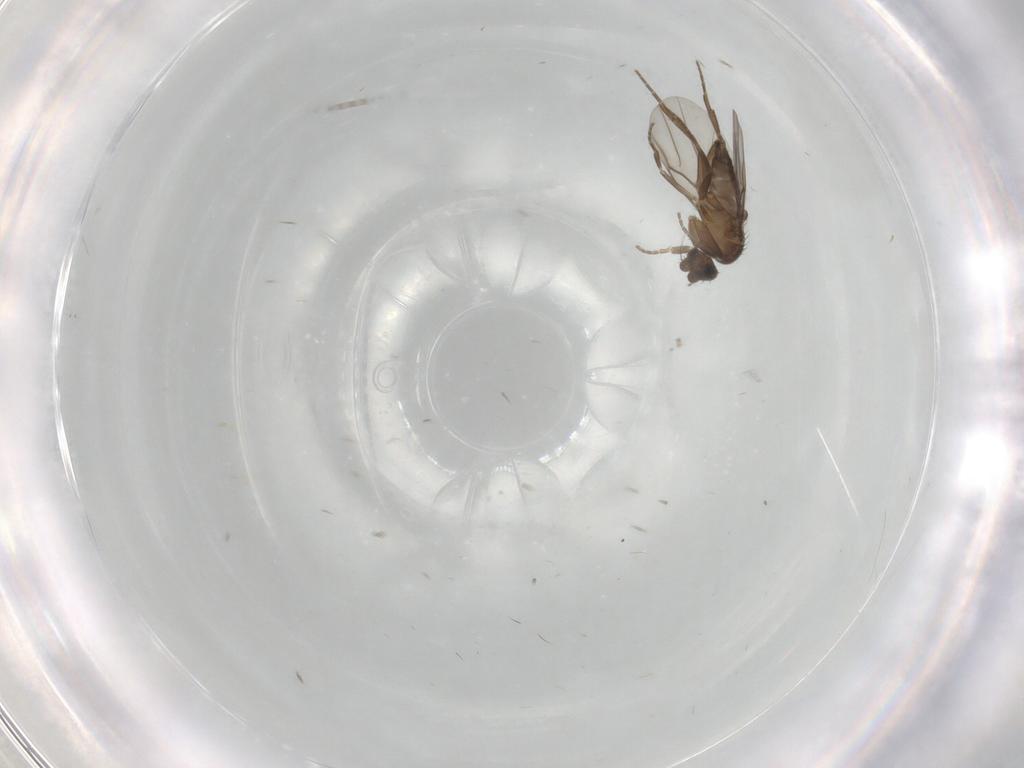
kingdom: Animalia
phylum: Arthropoda
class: Insecta
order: Diptera
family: Phoridae
